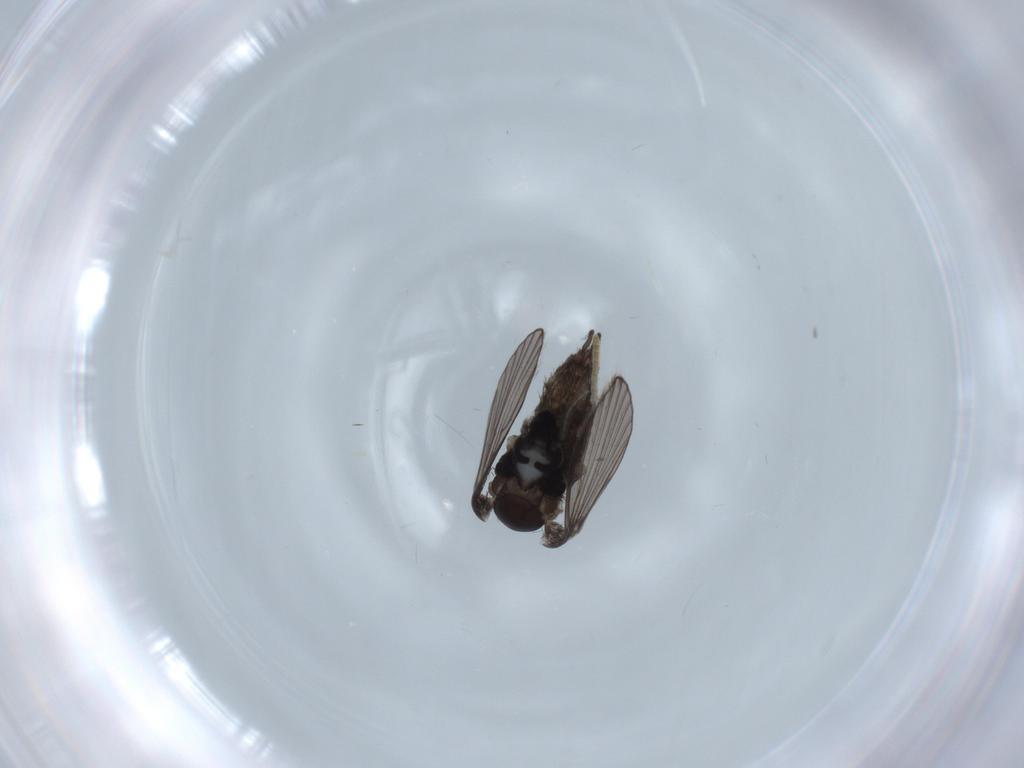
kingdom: Animalia
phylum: Arthropoda
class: Insecta
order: Diptera
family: Psychodidae
